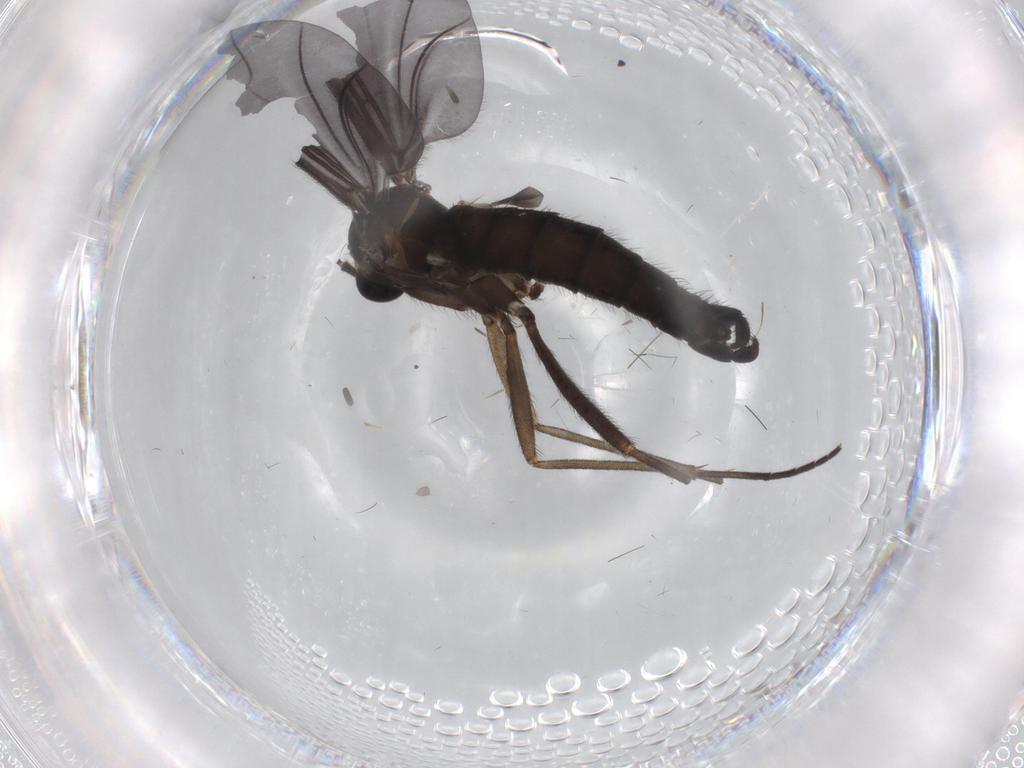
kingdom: Animalia
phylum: Arthropoda
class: Insecta
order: Diptera
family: Sciaridae
